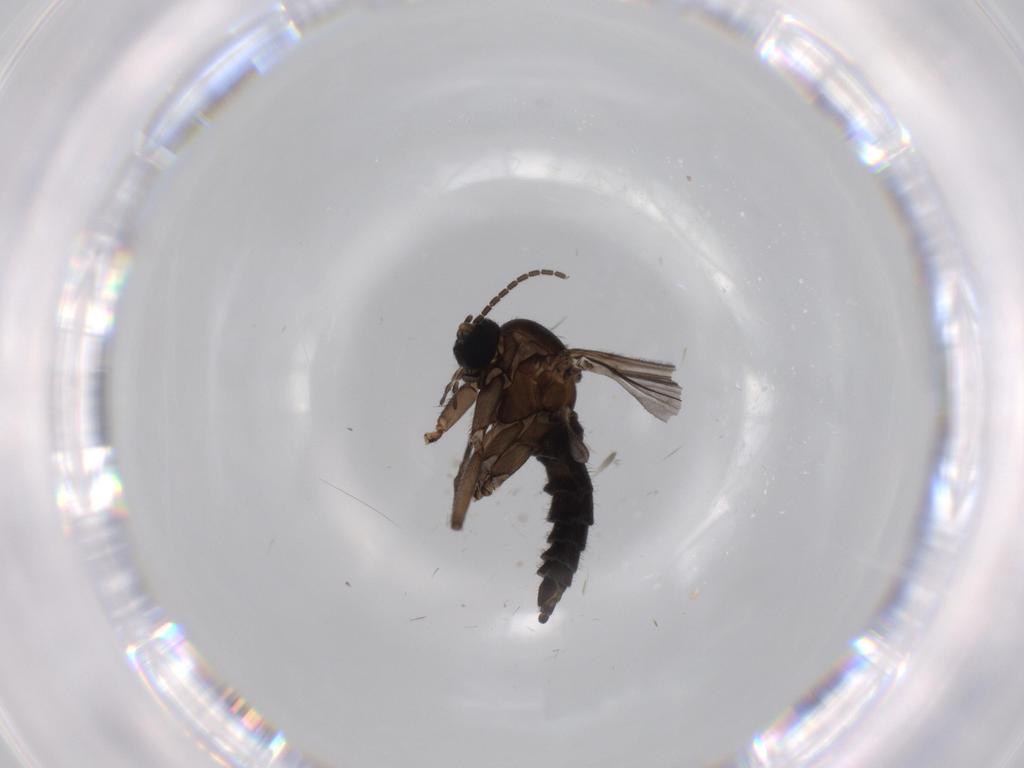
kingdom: Animalia
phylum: Arthropoda
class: Insecta
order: Diptera
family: Sciaridae
